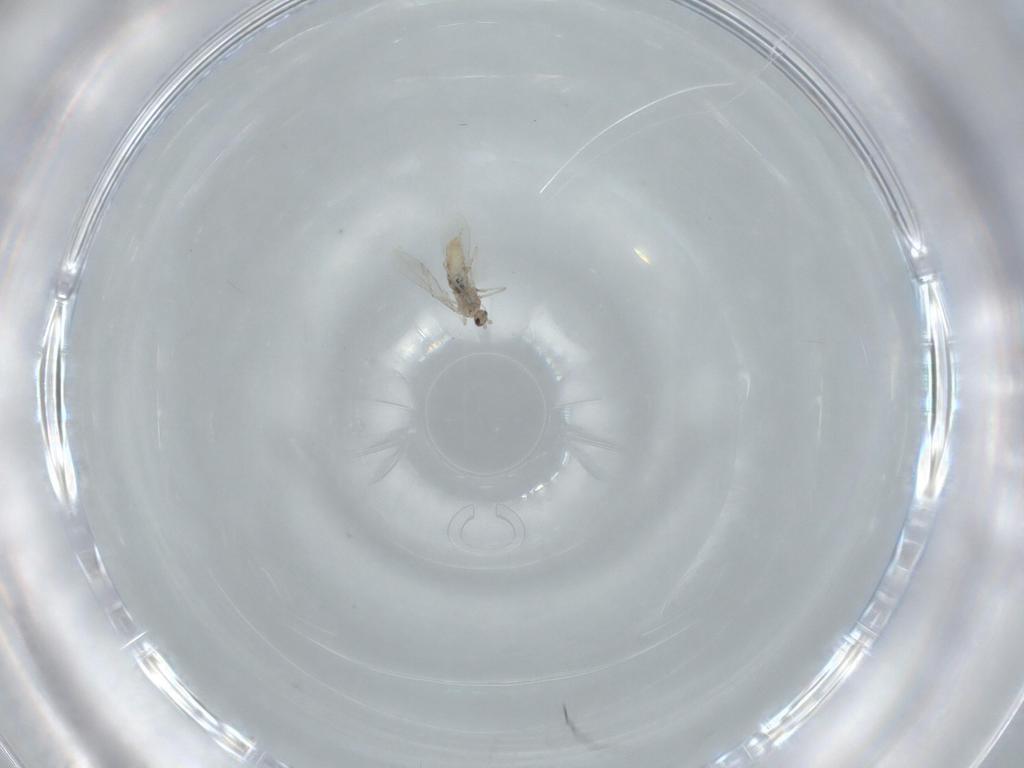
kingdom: Animalia
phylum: Arthropoda
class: Insecta
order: Diptera
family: Cecidomyiidae
